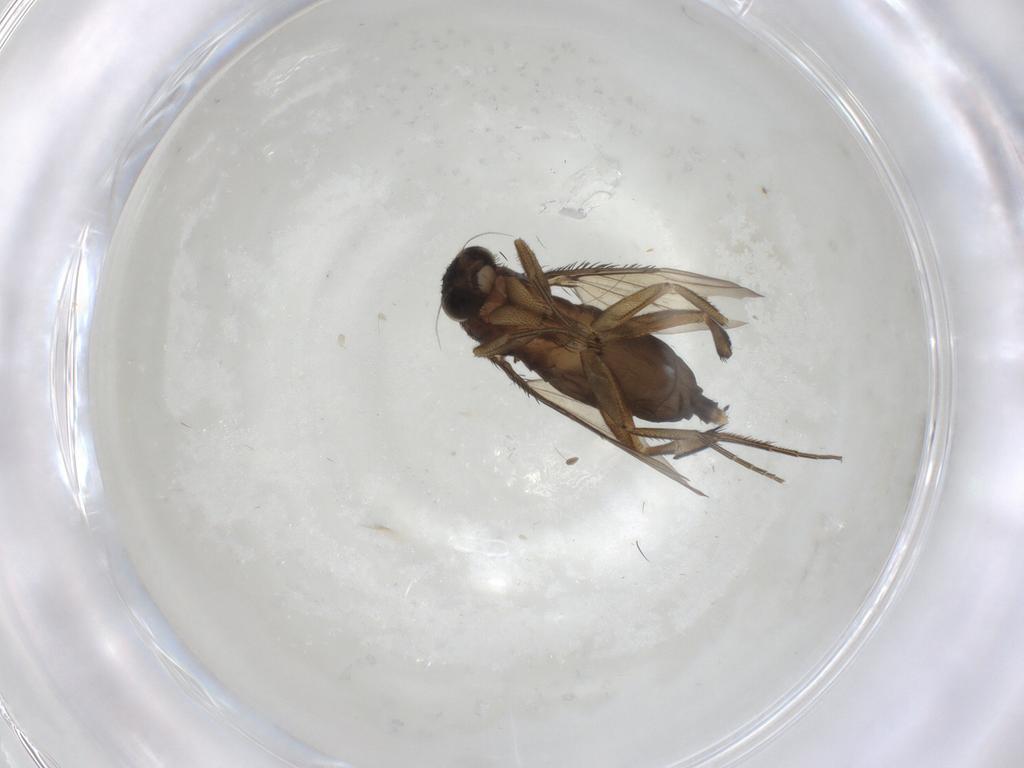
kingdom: Animalia
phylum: Arthropoda
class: Insecta
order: Diptera
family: Phoridae
